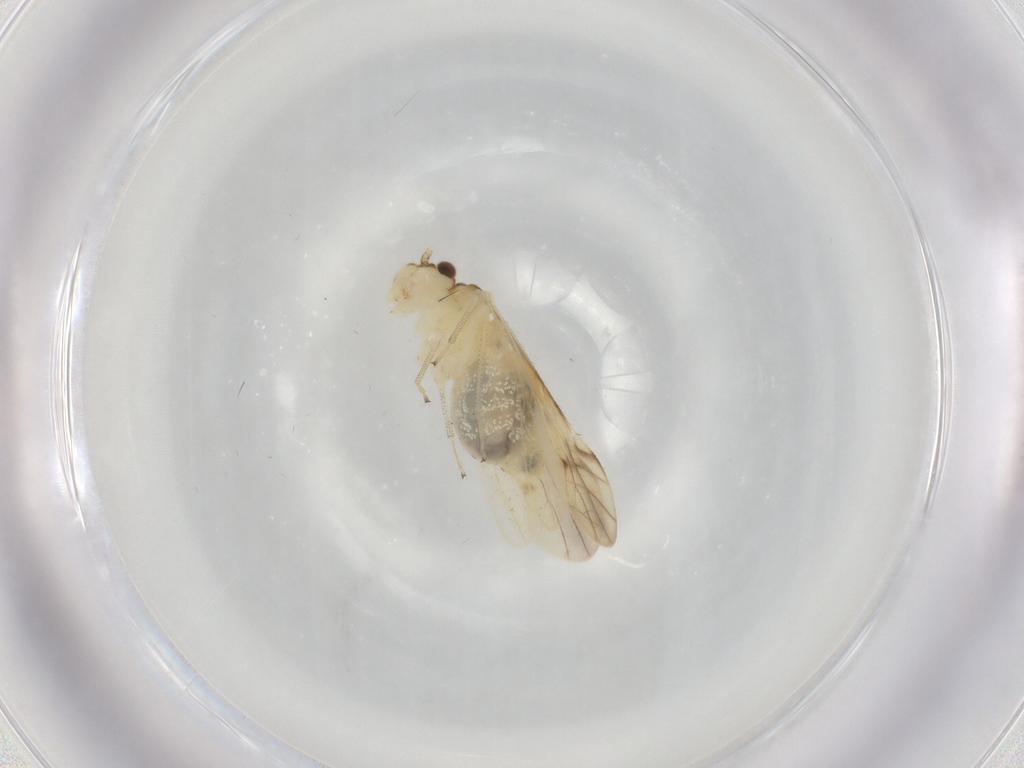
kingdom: Animalia
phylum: Arthropoda
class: Insecta
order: Psocodea
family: Caeciliusidae
